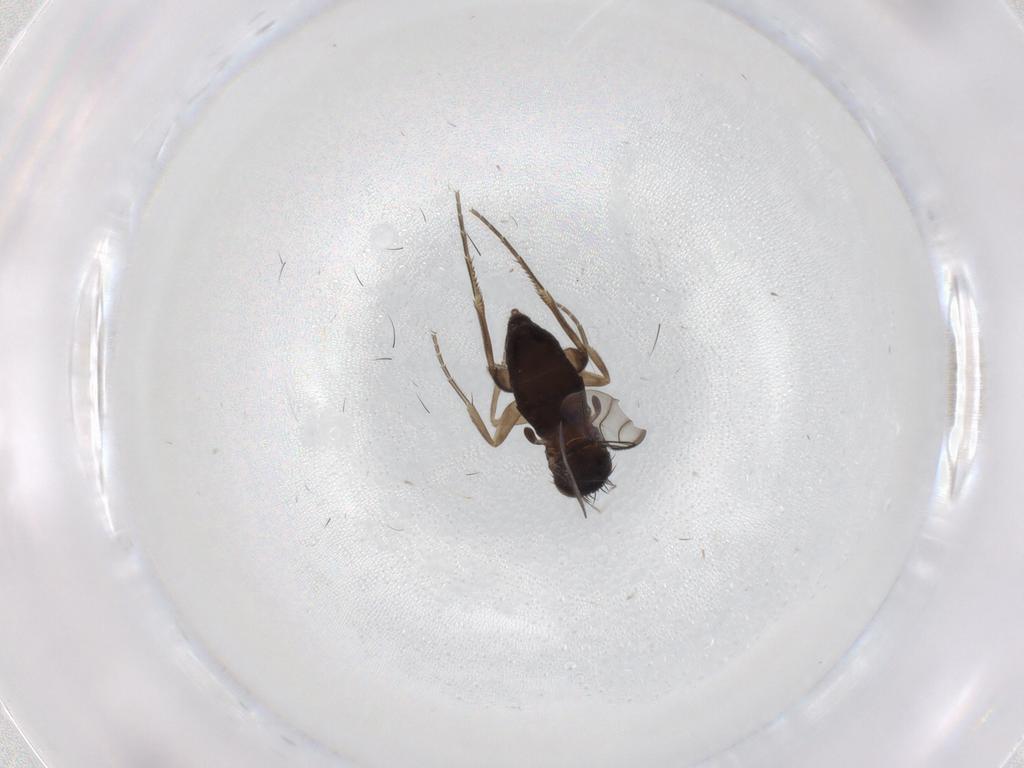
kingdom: Animalia
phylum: Arthropoda
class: Insecta
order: Diptera
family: Phoridae
